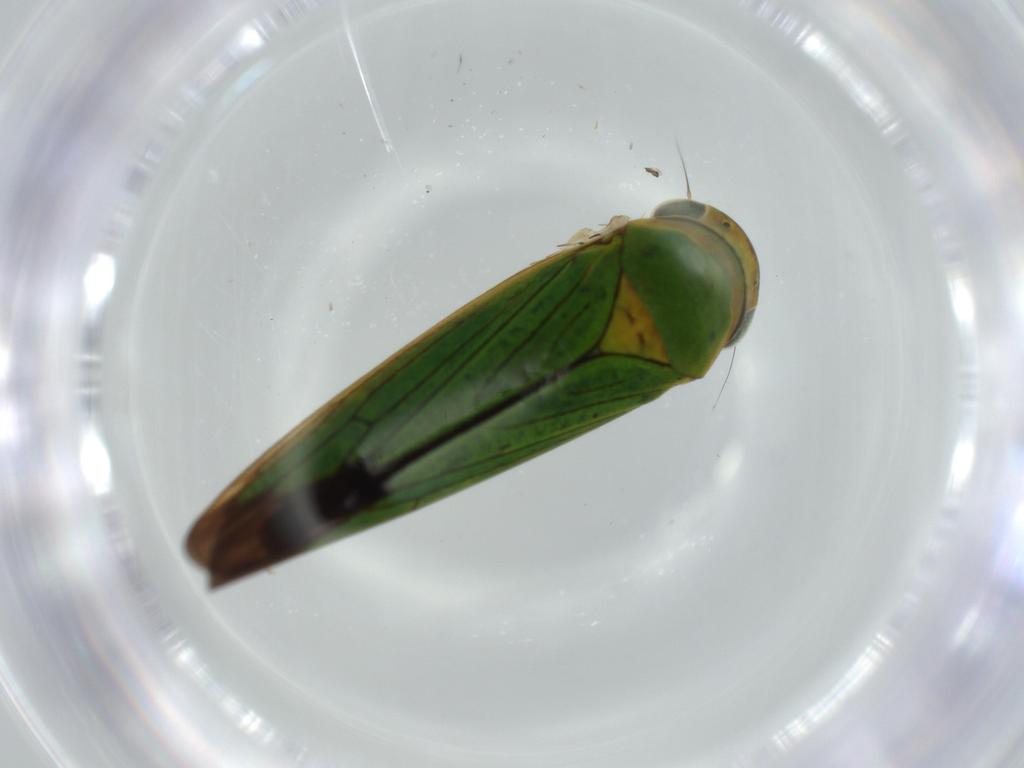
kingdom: Animalia
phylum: Arthropoda
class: Insecta
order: Hemiptera
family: Cicadellidae
